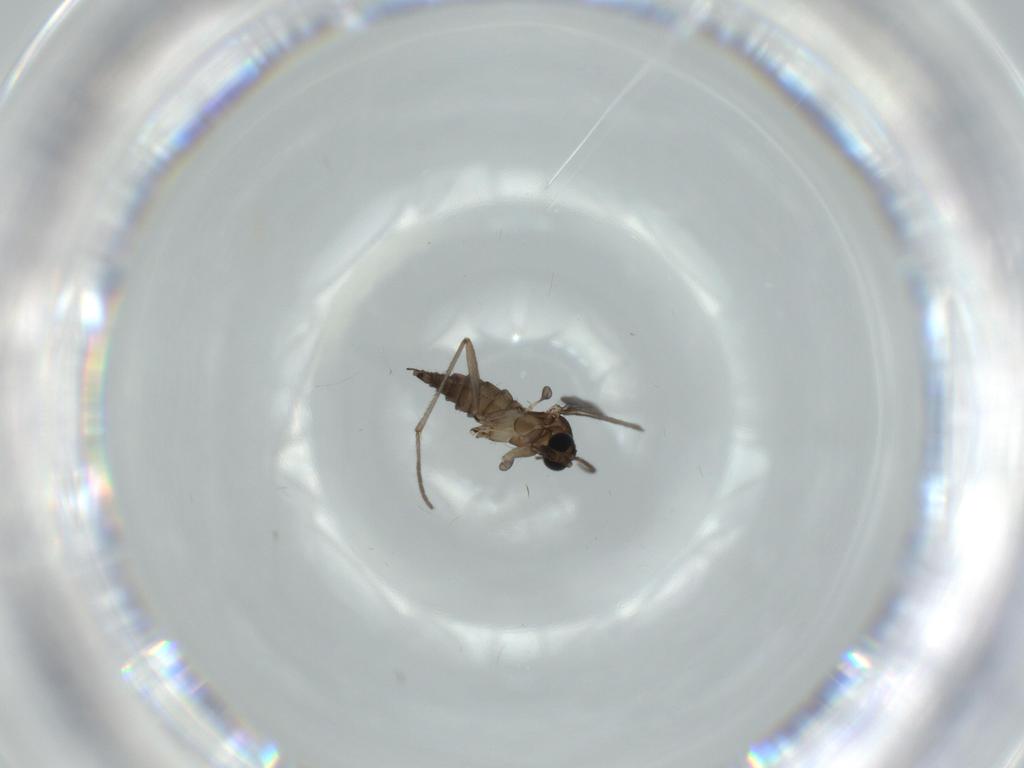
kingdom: Animalia
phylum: Arthropoda
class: Insecta
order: Diptera
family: Sciaridae
